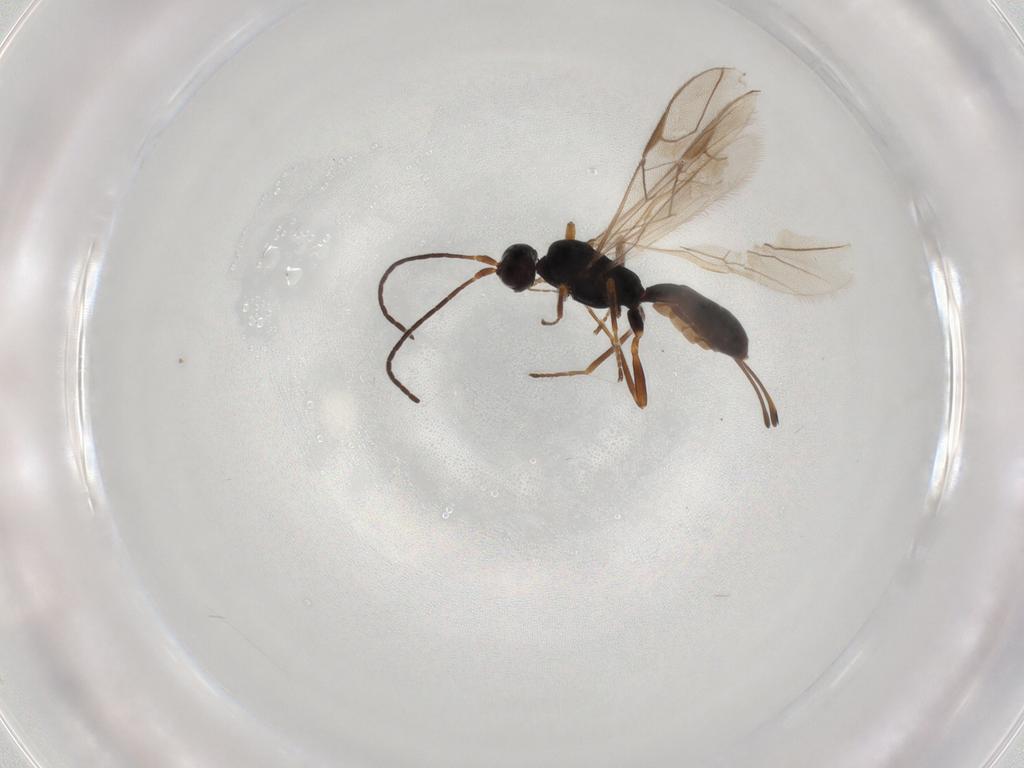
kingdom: Animalia
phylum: Arthropoda
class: Insecta
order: Hymenoptera
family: Braconidae
